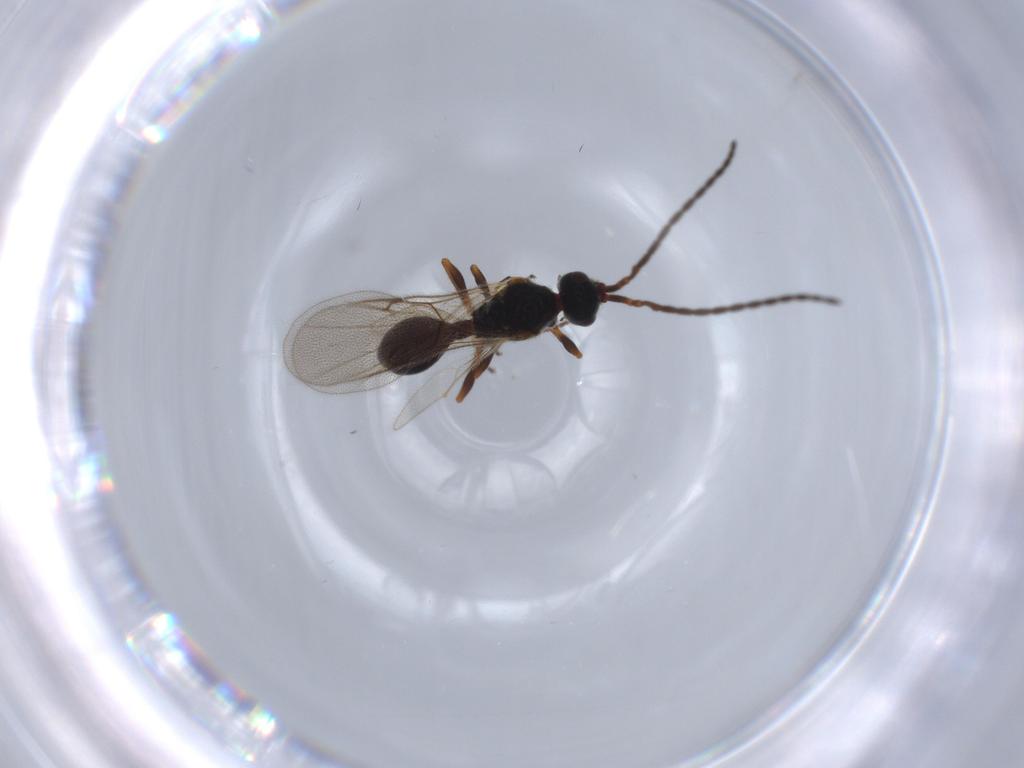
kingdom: Animalia
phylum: Arthropoda
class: Insecta
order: Hymenoptera
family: Diapriidae
